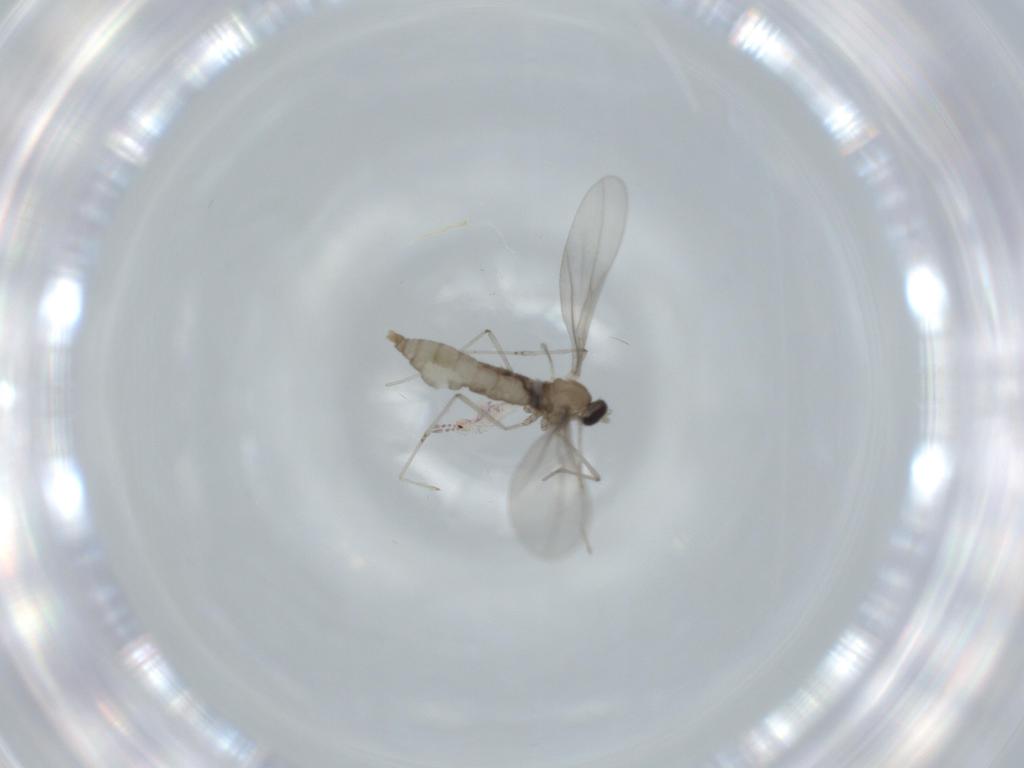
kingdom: Animalia
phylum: Arthropoda
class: Insecta
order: Diptera
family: Cecidomyiidae
